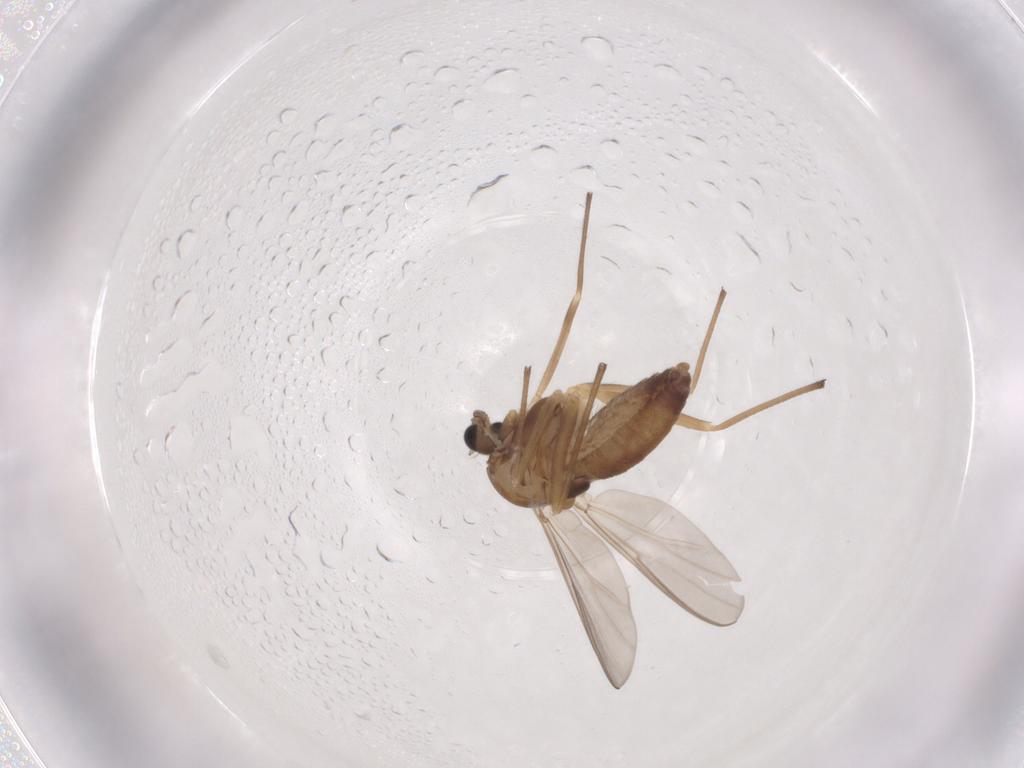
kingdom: Animalia
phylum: Arthropoda
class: Insecta
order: Diptera
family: Chironomidae
